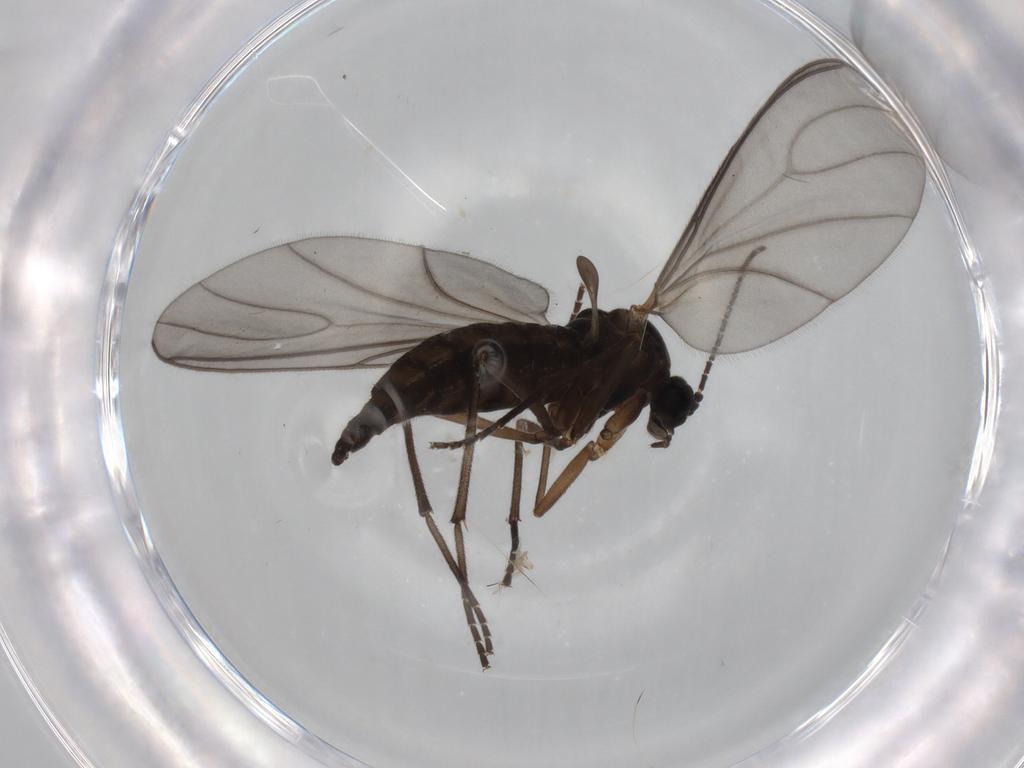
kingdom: Animalia
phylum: Arthropoda
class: Insecta
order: Diptera
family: Sciaridae
